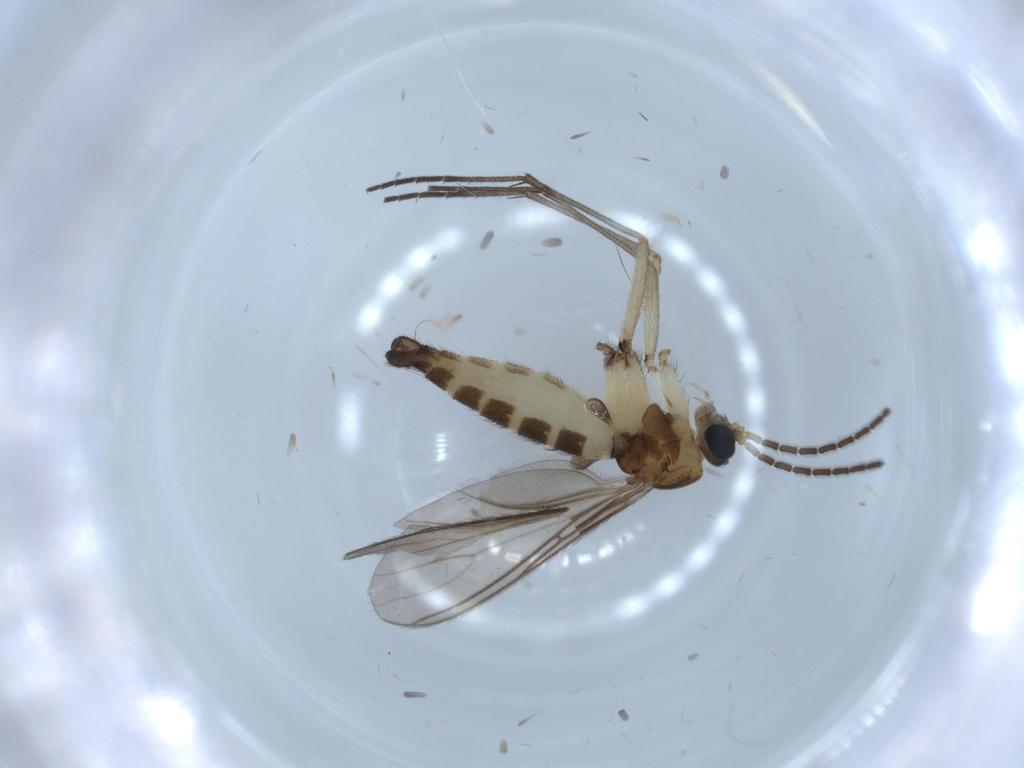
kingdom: Animalia
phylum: Arthropoda
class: Insecta
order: Diptera
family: Sciaridae
